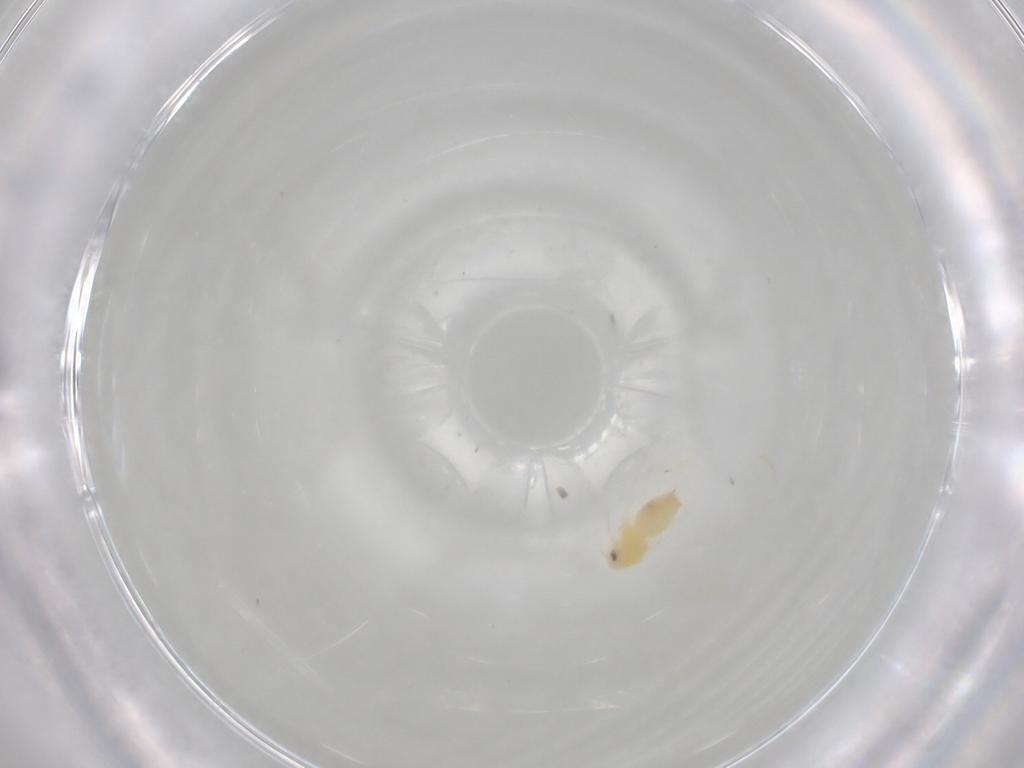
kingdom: Animalia
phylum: Arthropoda
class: Insecta
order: Hemiptera
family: Aleyrodidae
